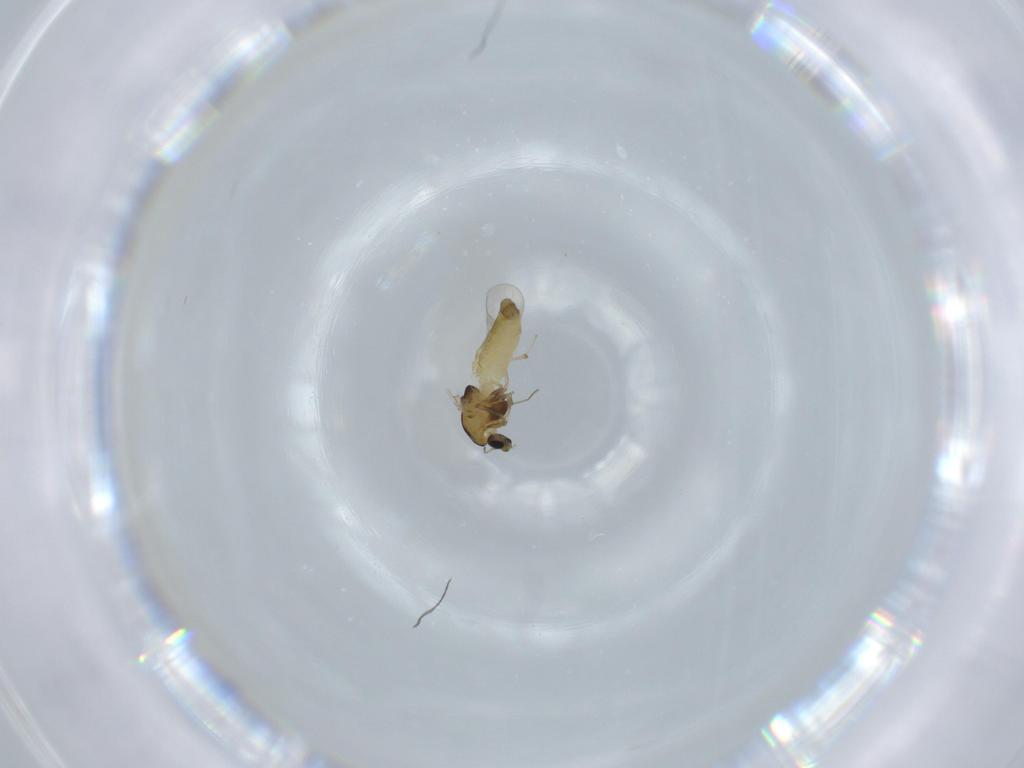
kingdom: Animalia
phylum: Arthropoda
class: Insecta
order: Diptera
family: Chironomidae
